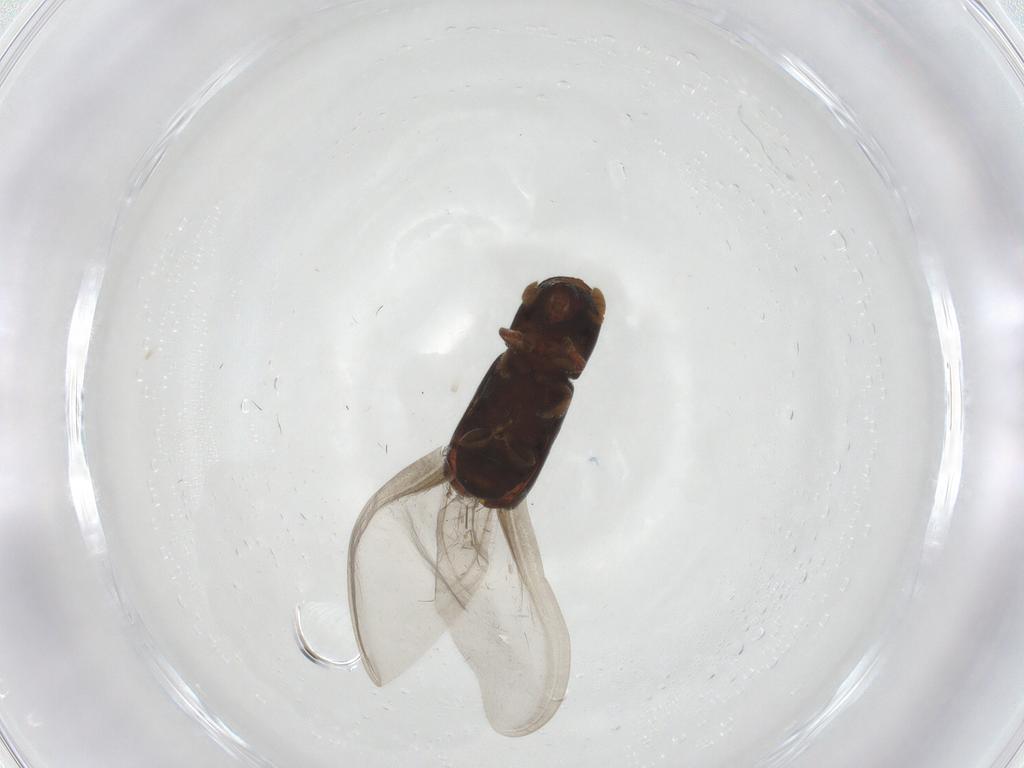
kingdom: Animalia
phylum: Arthropoda
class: Insecta
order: Coleoptera
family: Curculionidae
